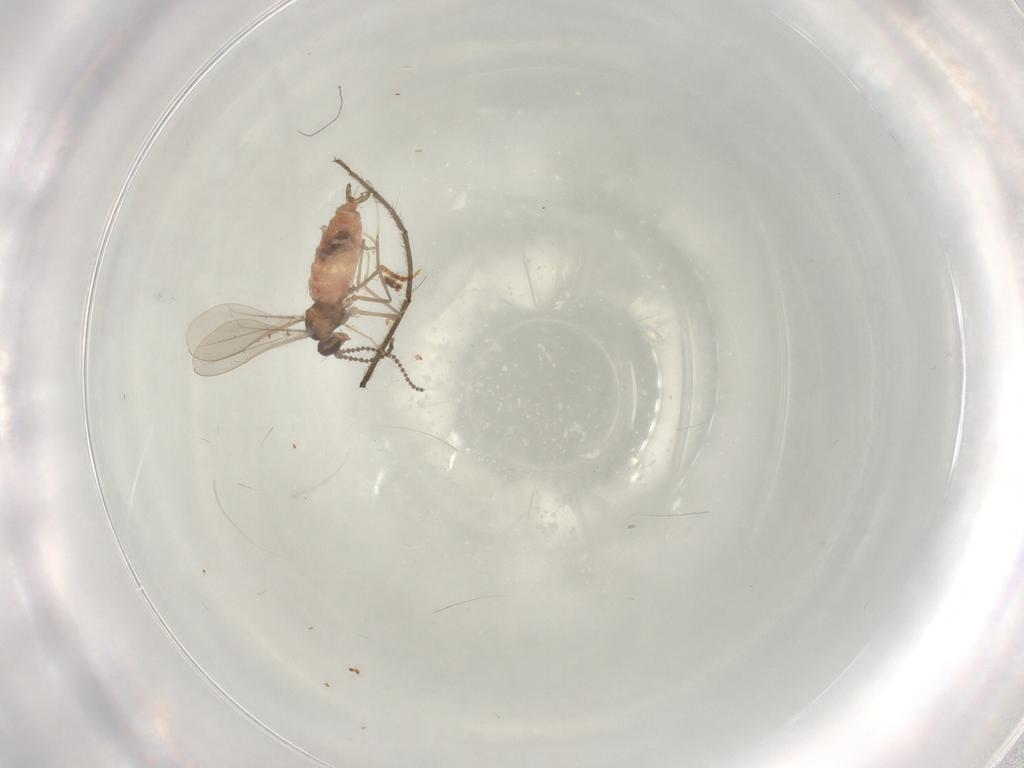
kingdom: Animalia
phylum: Arthropoda
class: Insecta
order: Diptera
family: Cecidomyiidae
